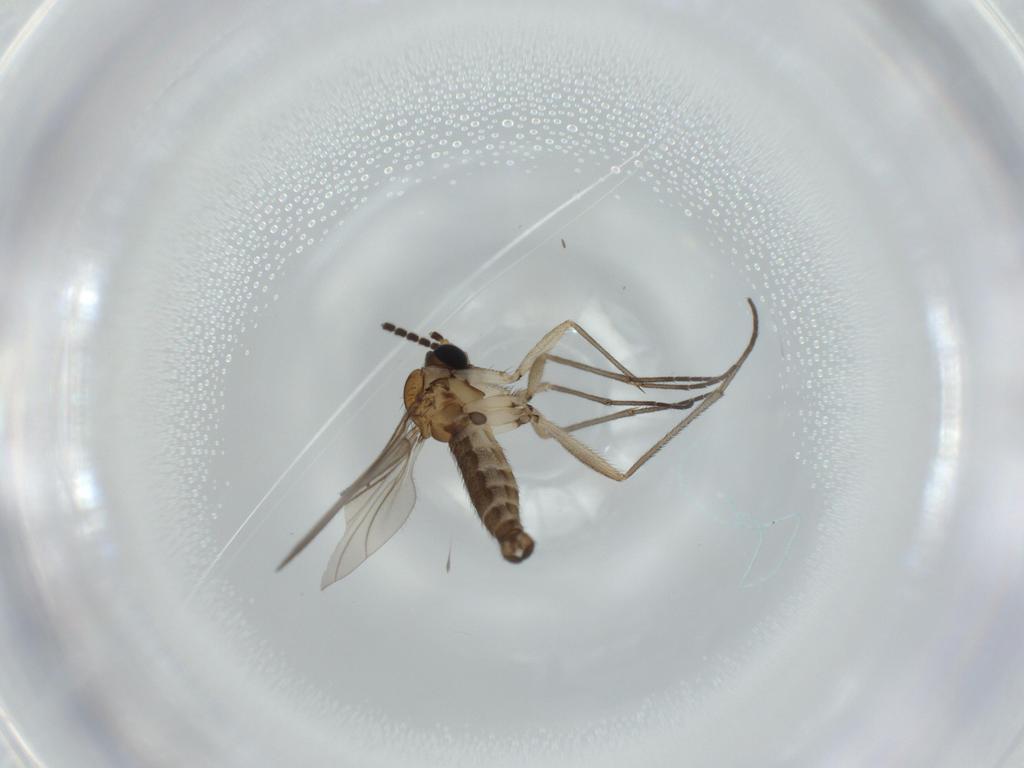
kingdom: Animalia
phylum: Arthropoda
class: Insecta
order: Diptera
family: Sciaridae
